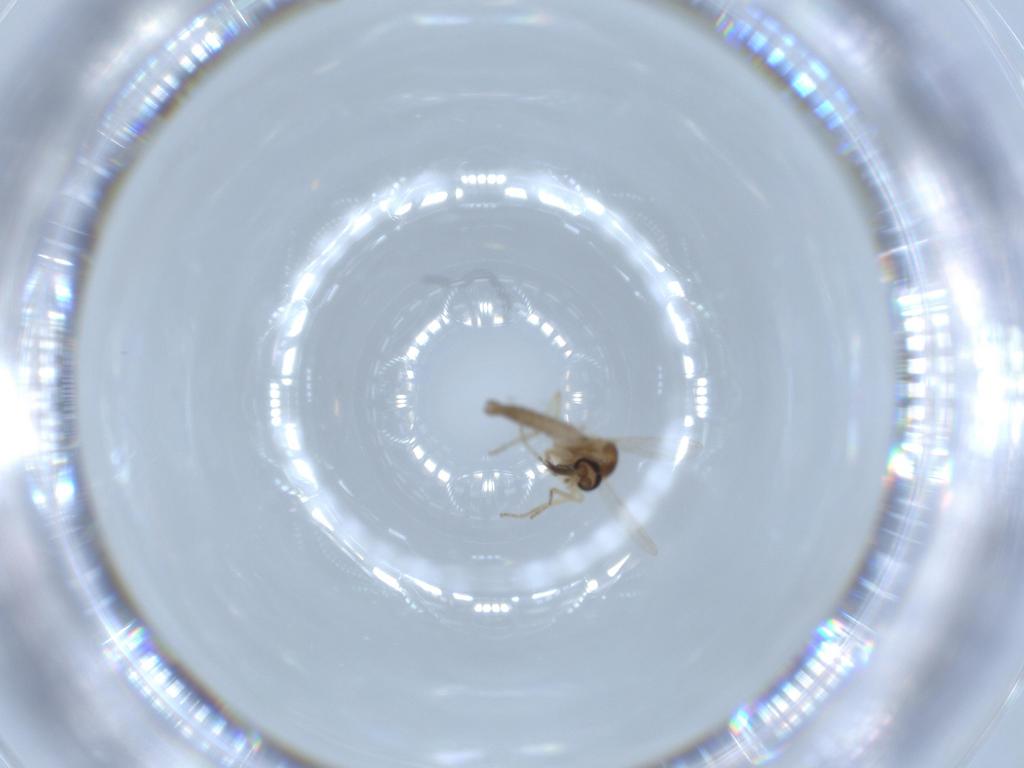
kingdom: Animalia
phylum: Arthropoda
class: Insecta
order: Diptera
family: Ceratopogonidae
